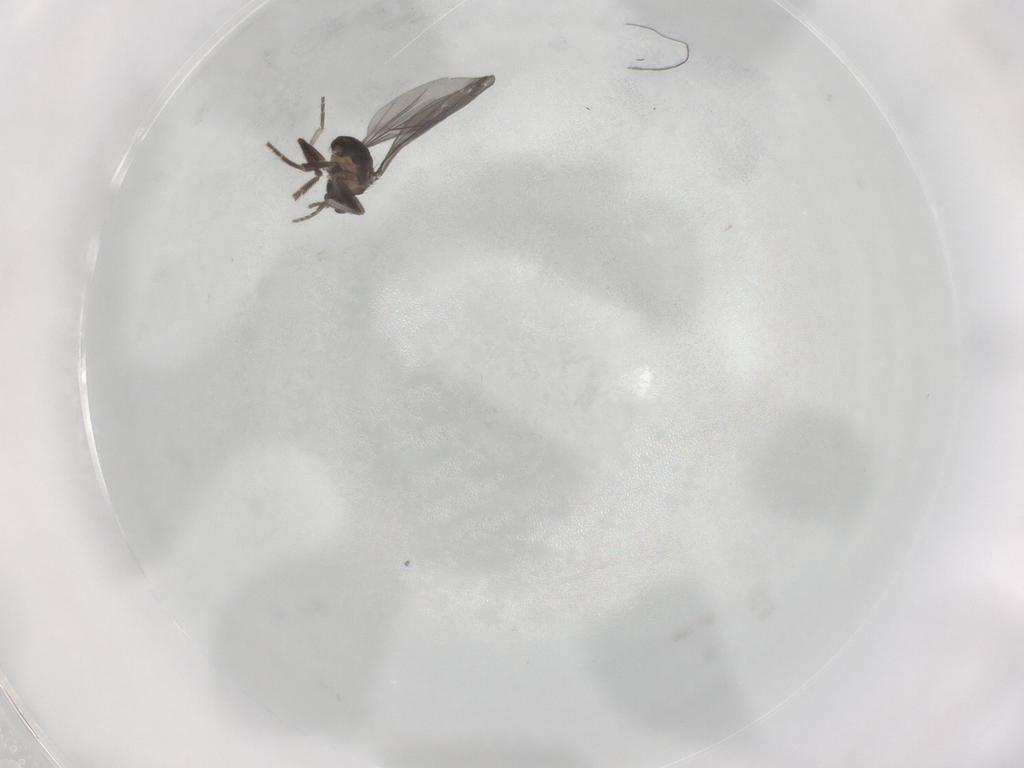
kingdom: Animalia
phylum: Arthropoda
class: Insecta
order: Diptera
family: Phoridae
